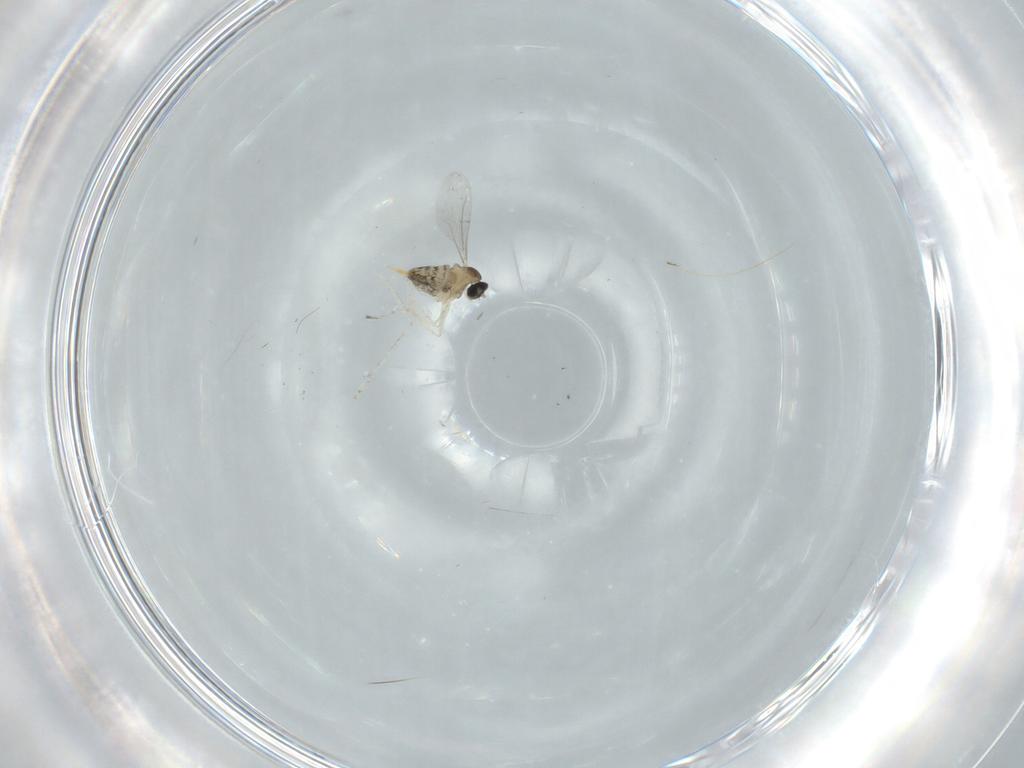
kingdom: Animalia
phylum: Arthropoda
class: Insecta
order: Diptera
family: Cecidomyiidae
